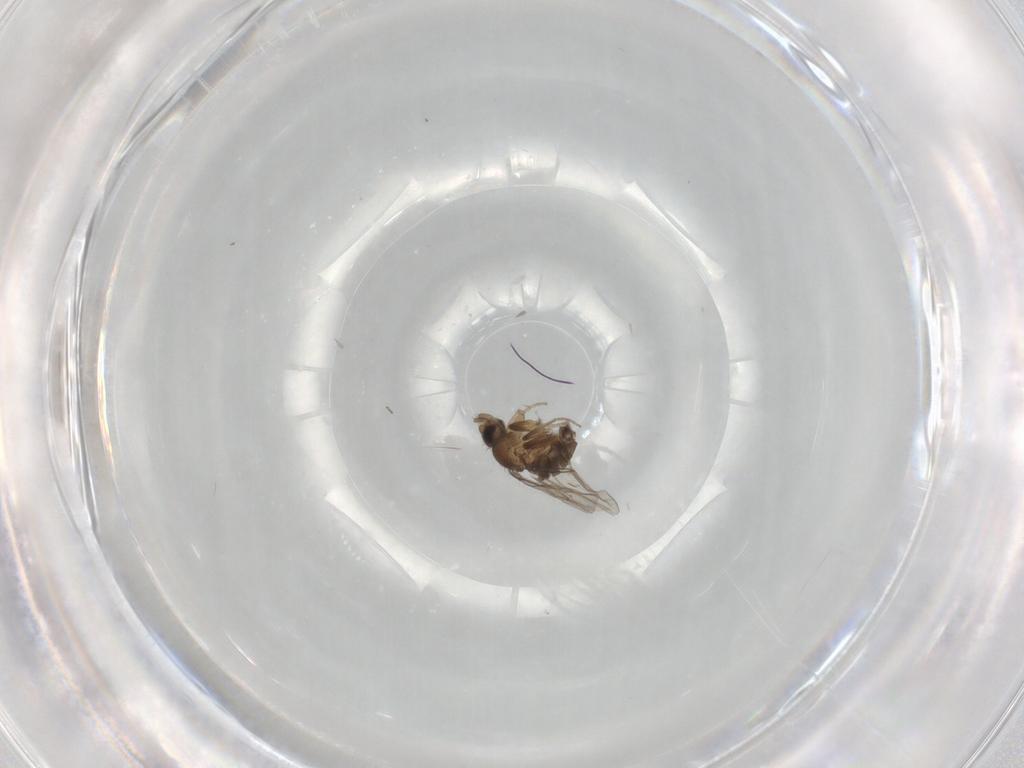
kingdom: Animalia
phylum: Arthropoda
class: Insecta
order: Diptera
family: Phoridae
